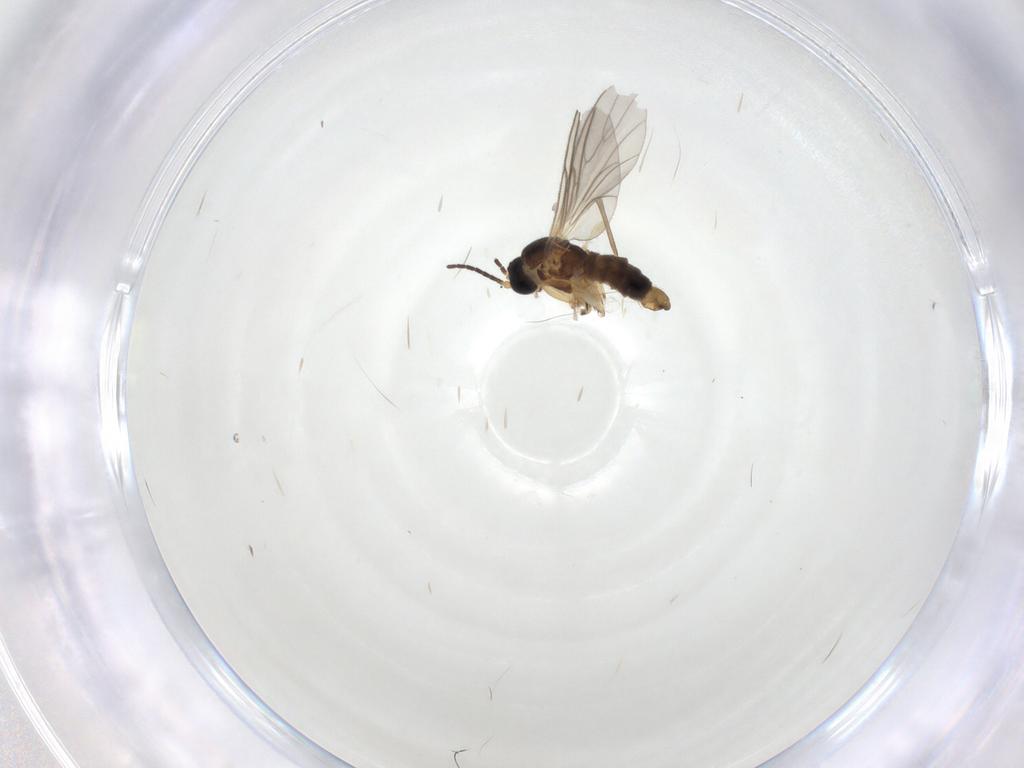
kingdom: Animalia
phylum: Arthropoda
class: Insecta
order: Diptera
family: Sciaridae
